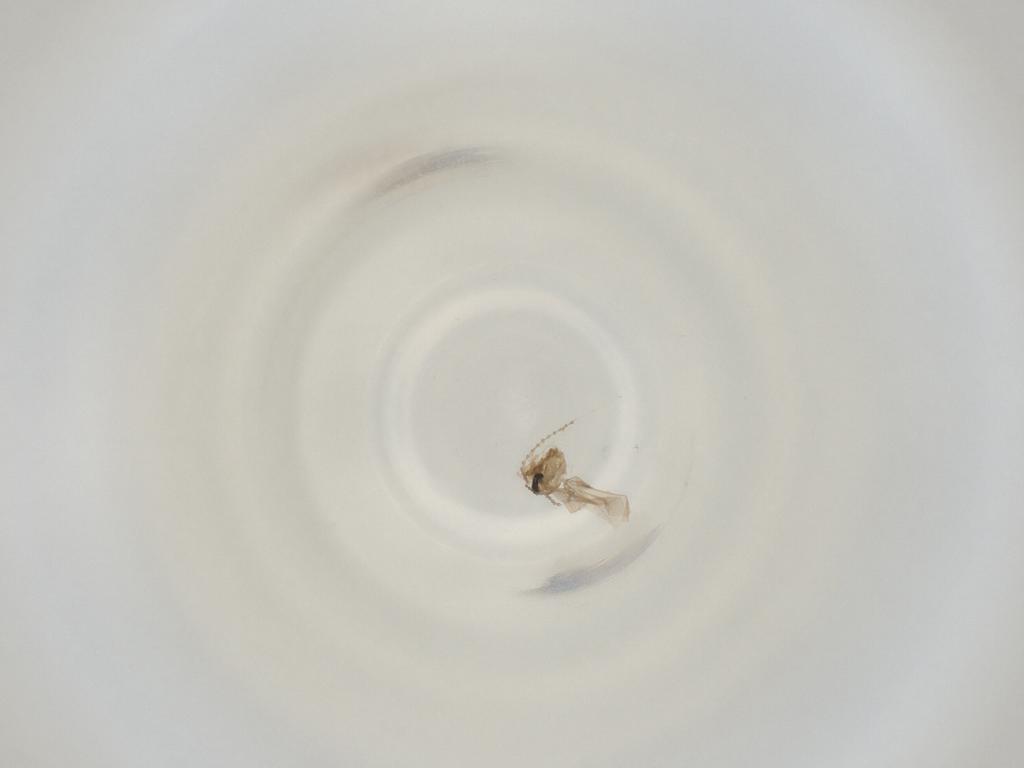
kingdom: Animalia
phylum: Arthropoda
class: Insecta
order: Diptera
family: Cecidomyiidae
